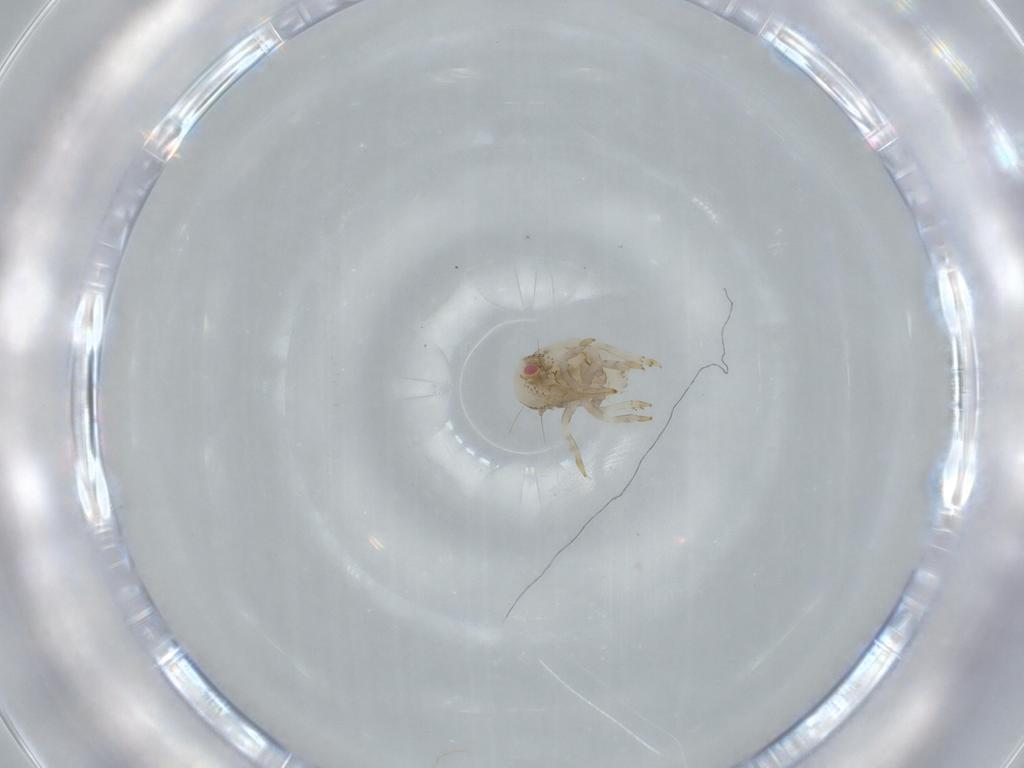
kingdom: Animalia
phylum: Arthropoda
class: Insecta
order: Hemiptera
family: Acanaloniidae
